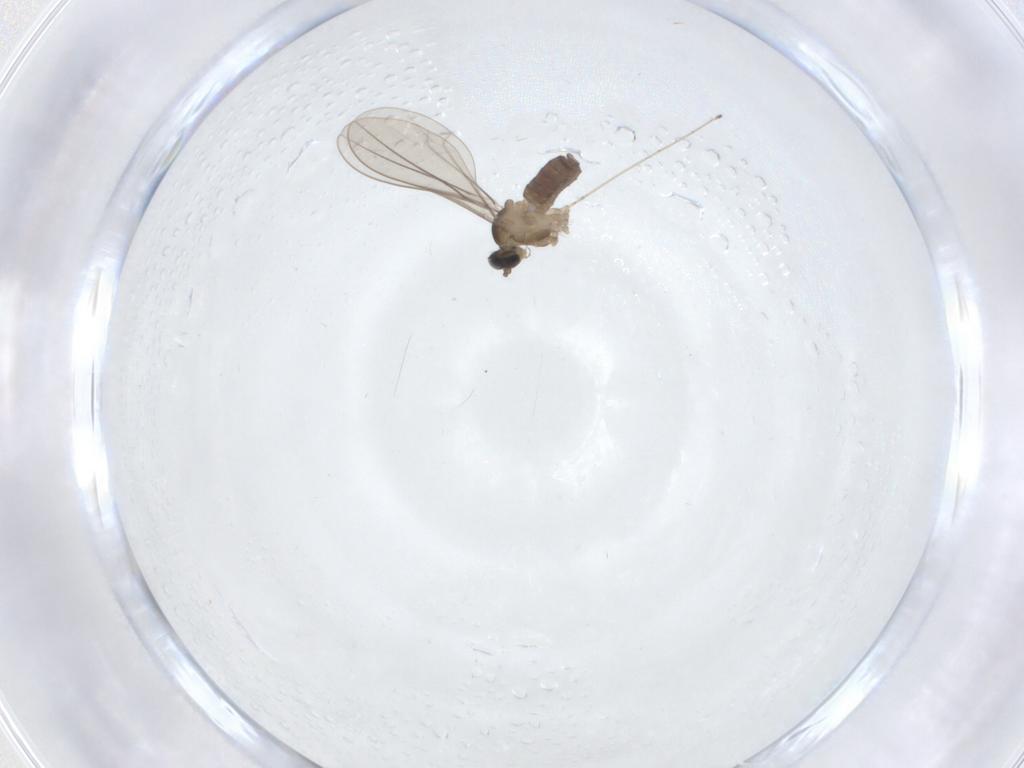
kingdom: Animalia
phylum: Arthropoda
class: Insecta
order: Diptera
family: Cecidomyiidae
